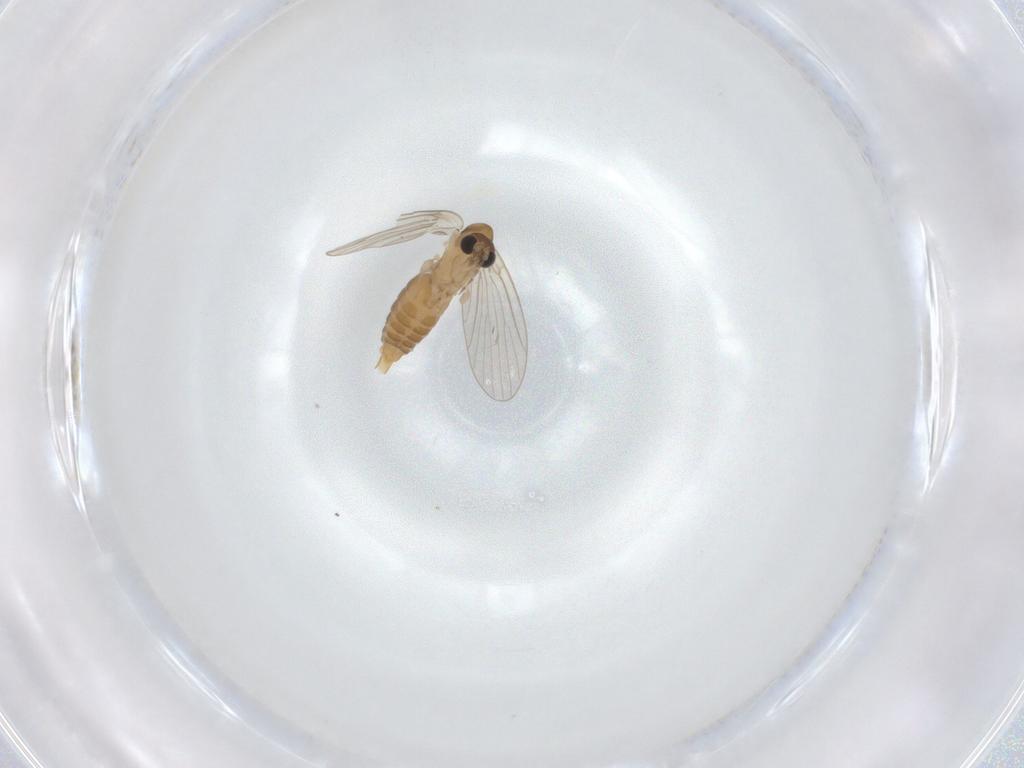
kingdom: Animalia
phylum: Arthropoda
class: Insecta
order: Diptera
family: Psychodidae
